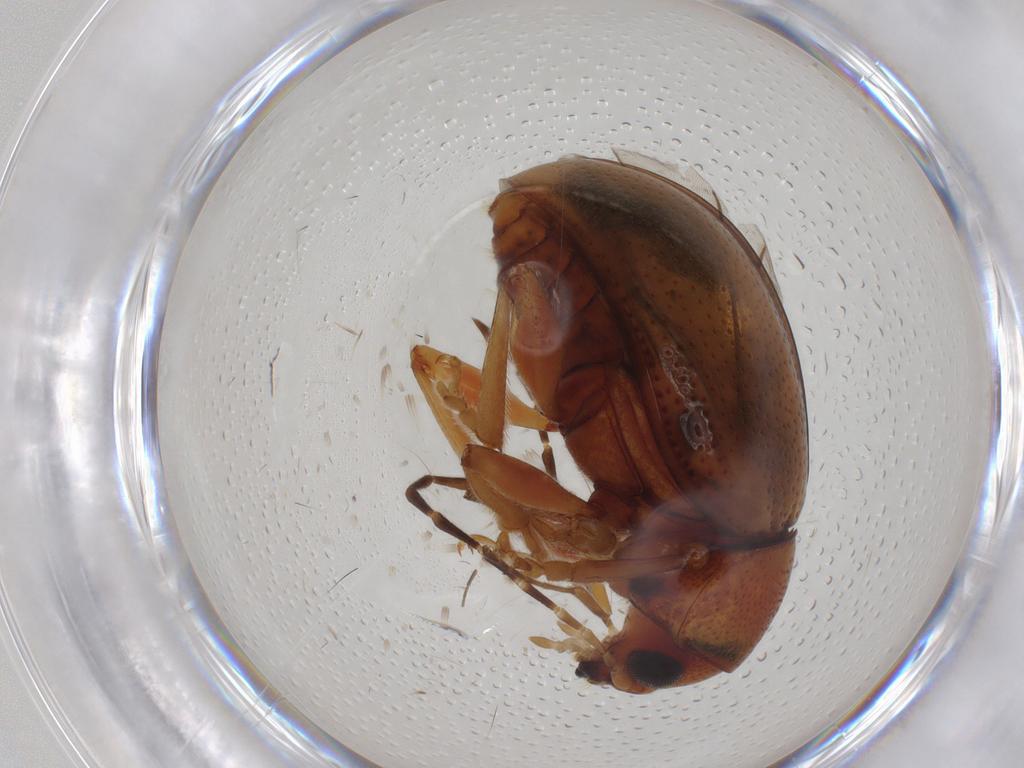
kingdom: Animalia
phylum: Arthropoda
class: Insecta
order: Coleoptera
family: Chrysomelidae
